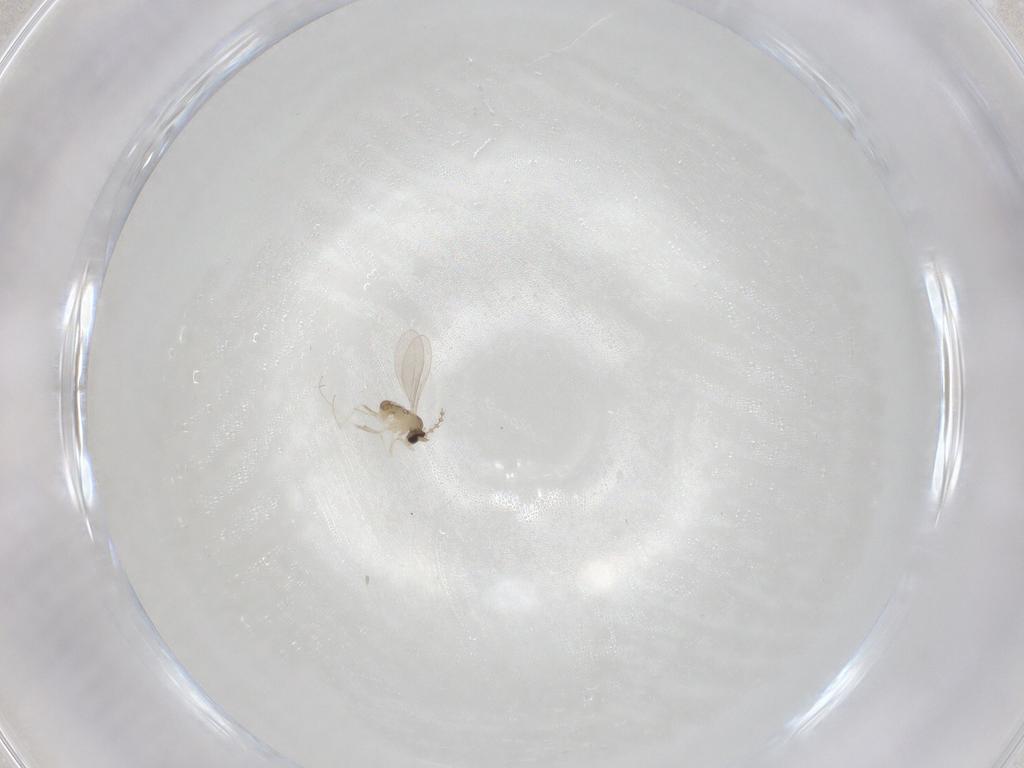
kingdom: Animalia
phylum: Arthropoda
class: Insecta
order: Diptera
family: Cecidomyiidae
